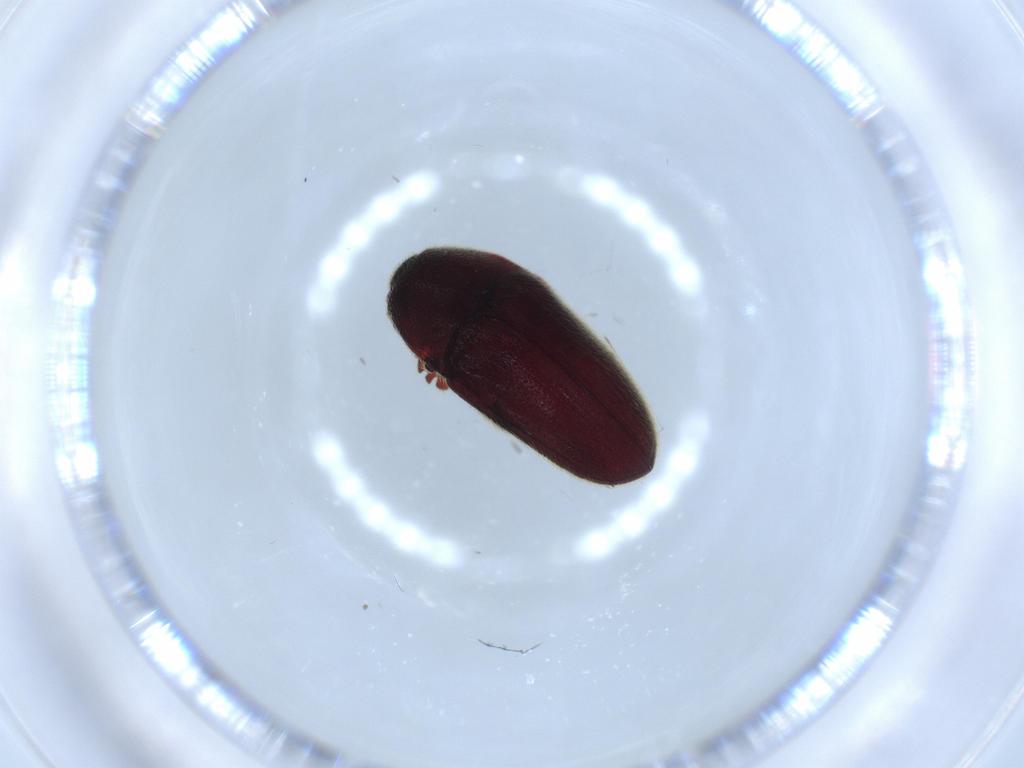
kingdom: Animalia
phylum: Arthropoda
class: Insecta
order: Coleoptera
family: Throscidae
